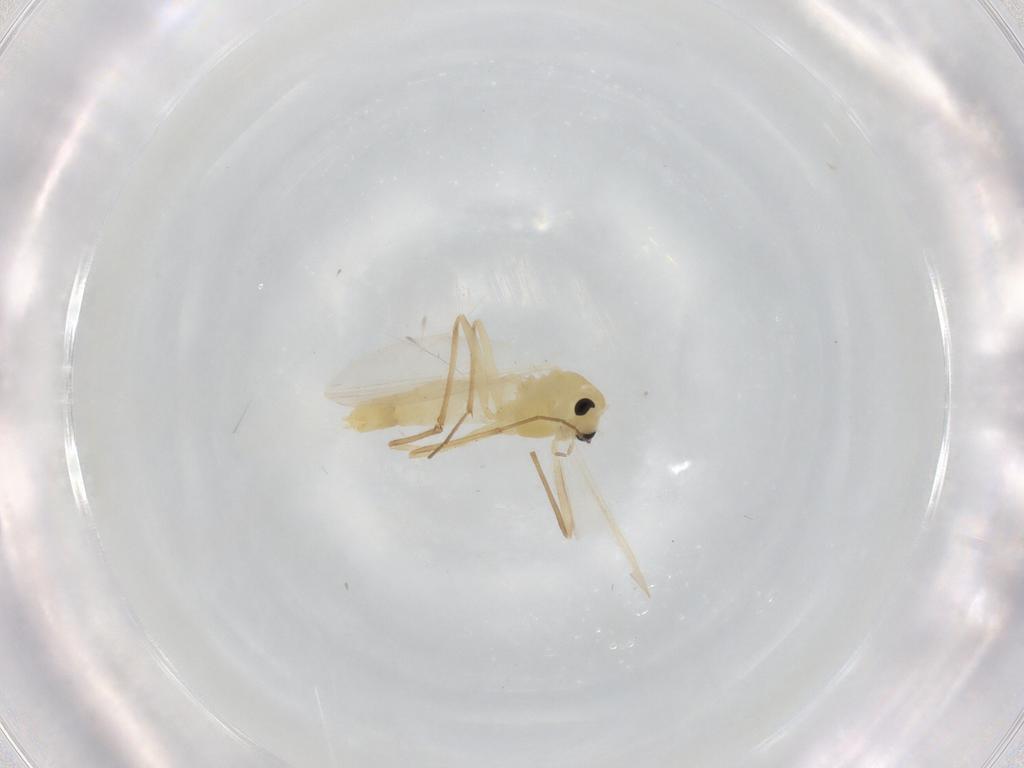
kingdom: Animalia
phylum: Arthropoda
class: Insecta
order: Diptera
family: Chironomidae
